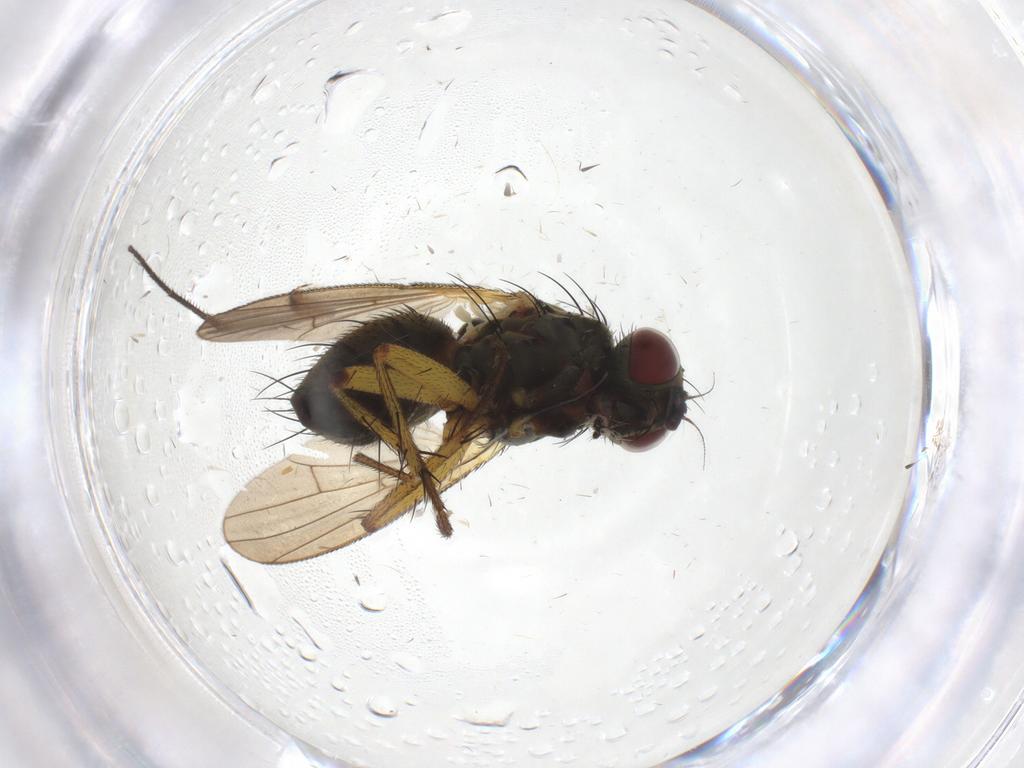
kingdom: Animalia
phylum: Arthropoda
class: Insecta
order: Diptera
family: Muscidae
